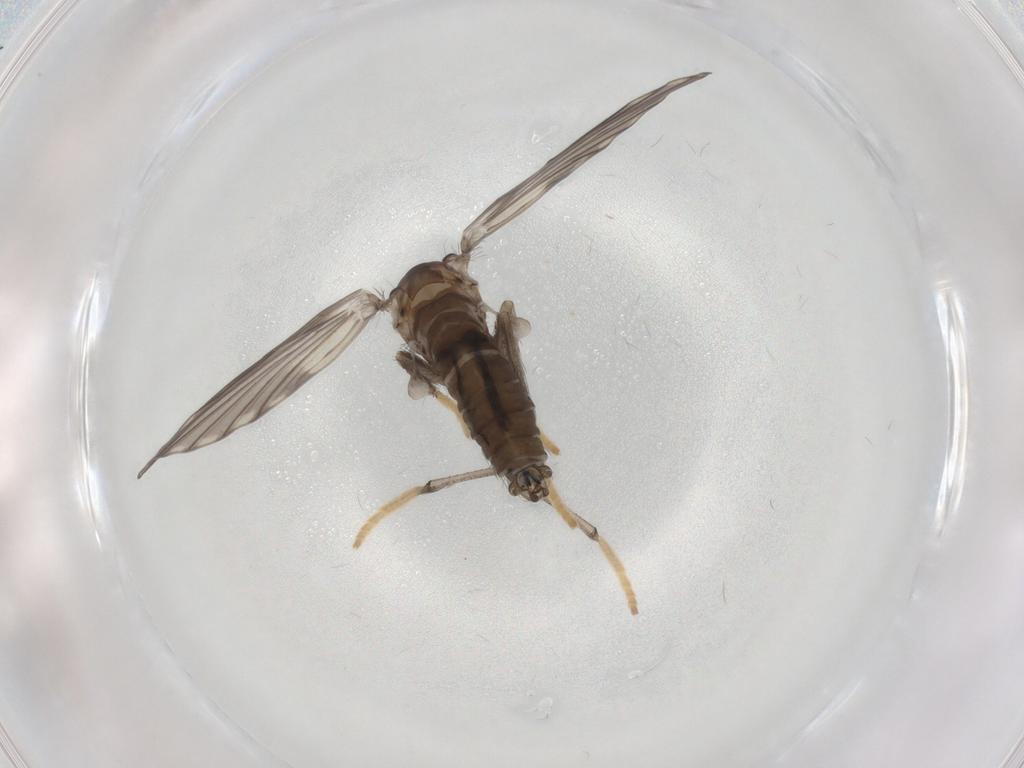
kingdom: Animalia
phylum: Arthropoda
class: Insecta
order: Diptera
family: Psychodidae
